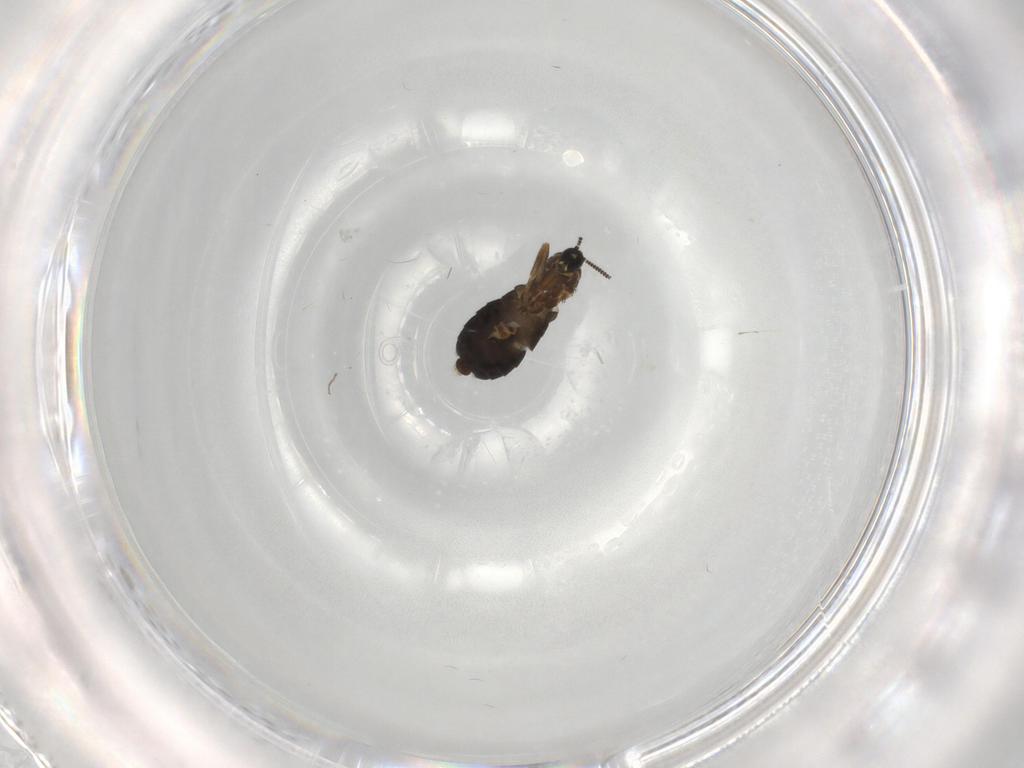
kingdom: Animalia
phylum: Arthropoda
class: Insecta
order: Diptera
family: Scatopsidae
